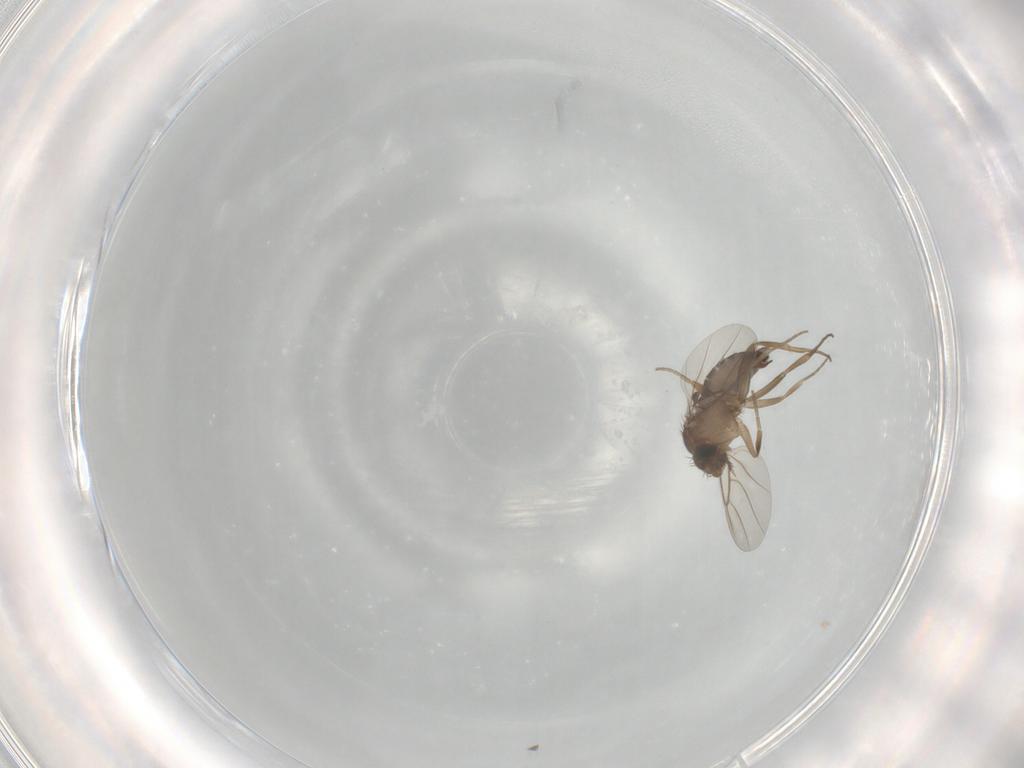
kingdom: Animalia
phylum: Arthropoda
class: Insecta
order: Diptera
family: Phoridae
